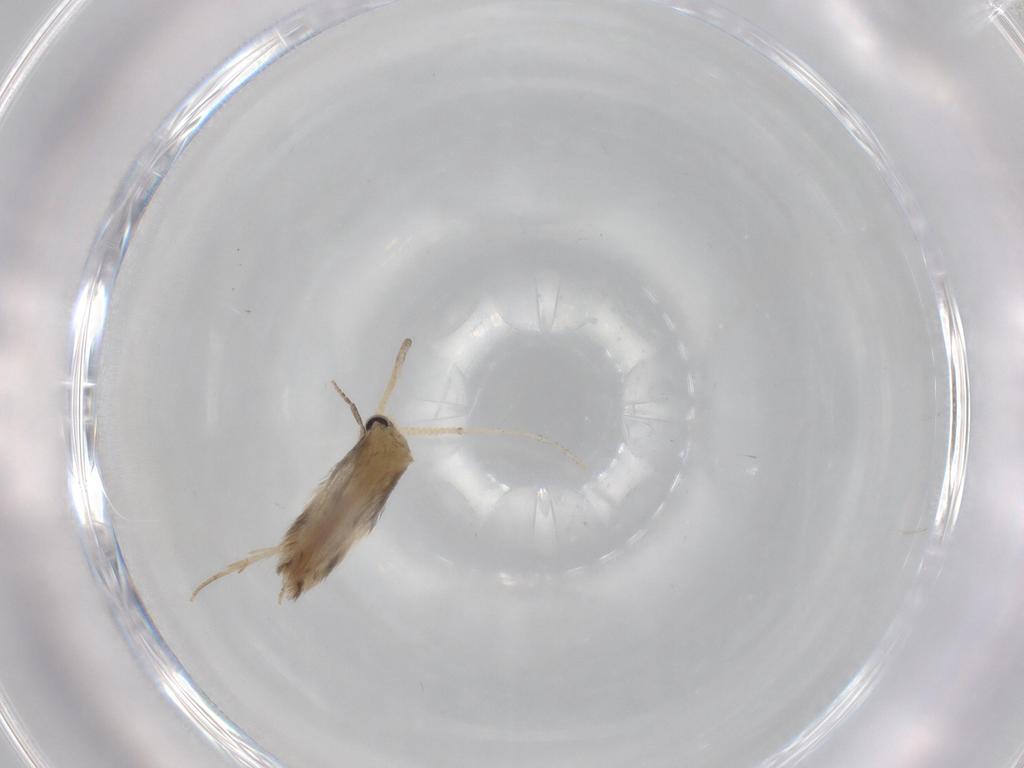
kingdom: Animalia
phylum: Arthropoda
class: Insecta
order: Trichoptera
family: Hydroptilidae
